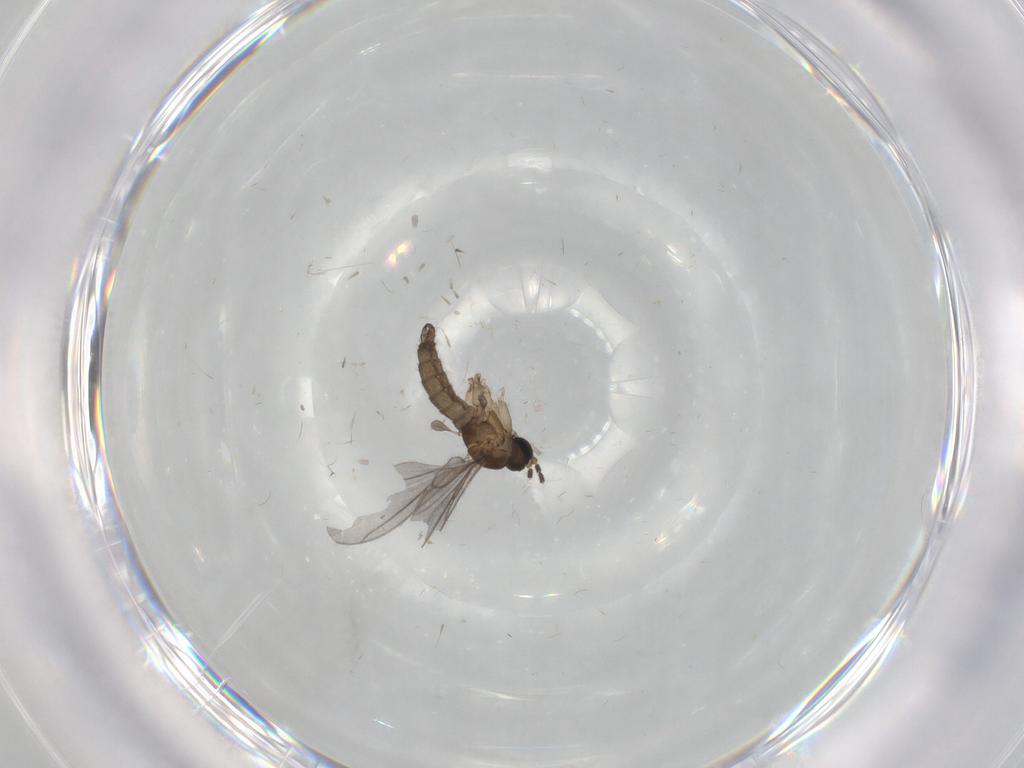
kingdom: Animalia
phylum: Arthropoda
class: Insecta
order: Diptera
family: Sciaridae
